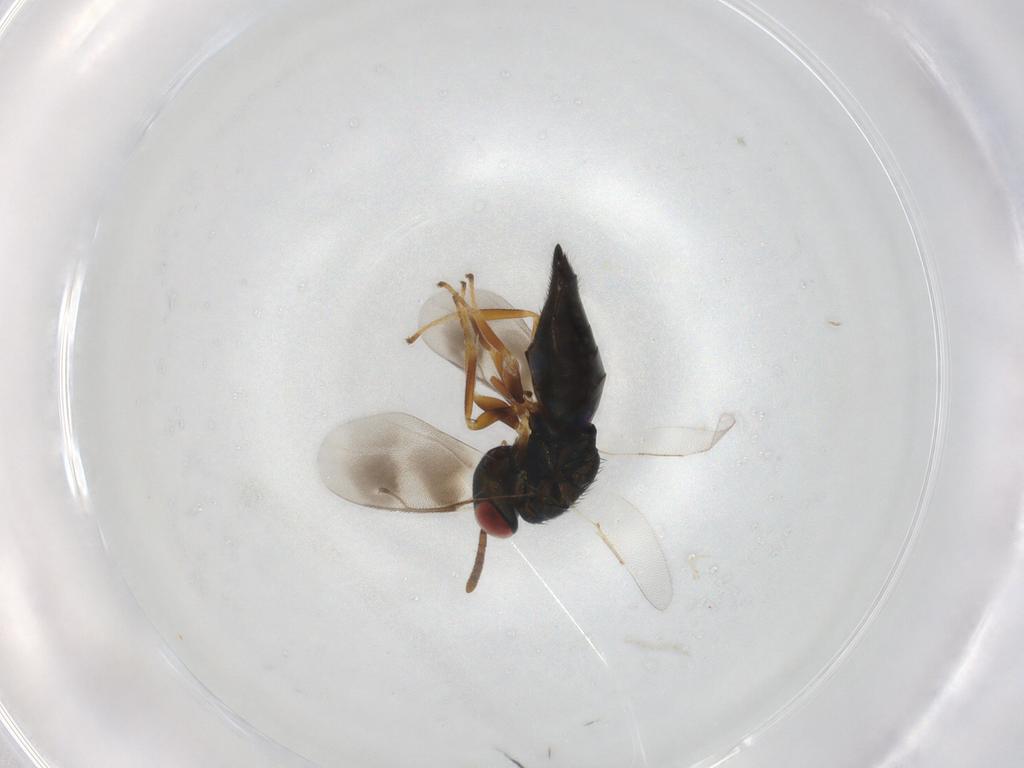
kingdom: Animalia
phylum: Arthropoda
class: Insecta
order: Hymenoptera
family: Pteromalidae
